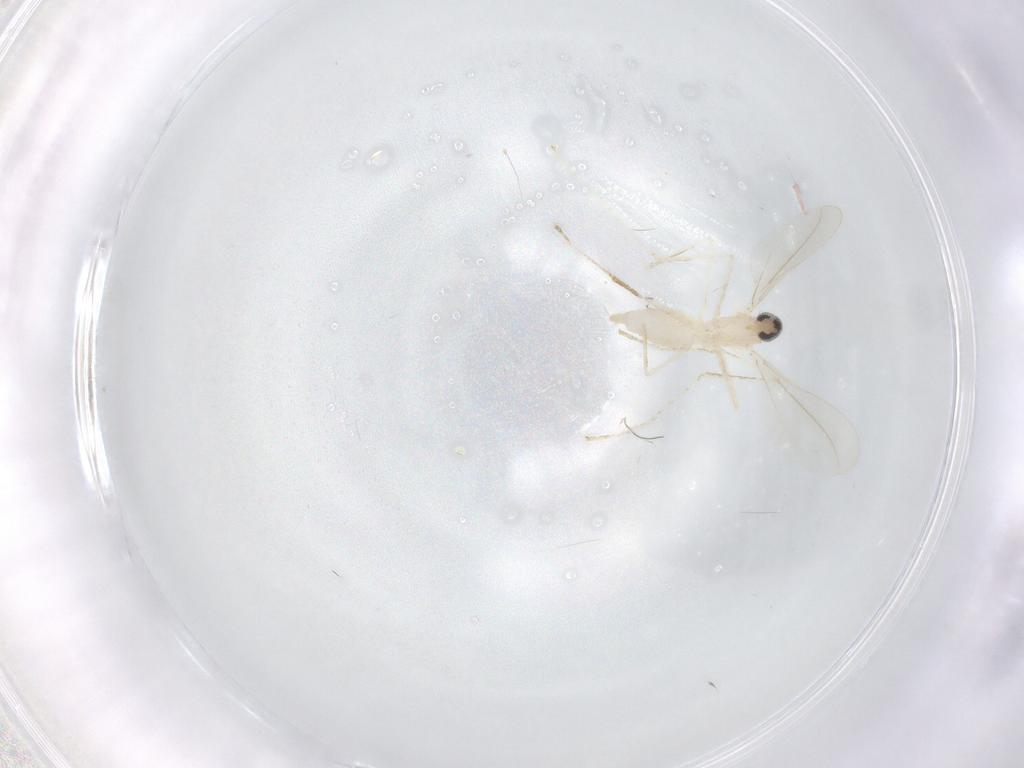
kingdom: Animalia
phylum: Arthropoda
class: Insecta
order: Diptera
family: Cecidomyiidae
